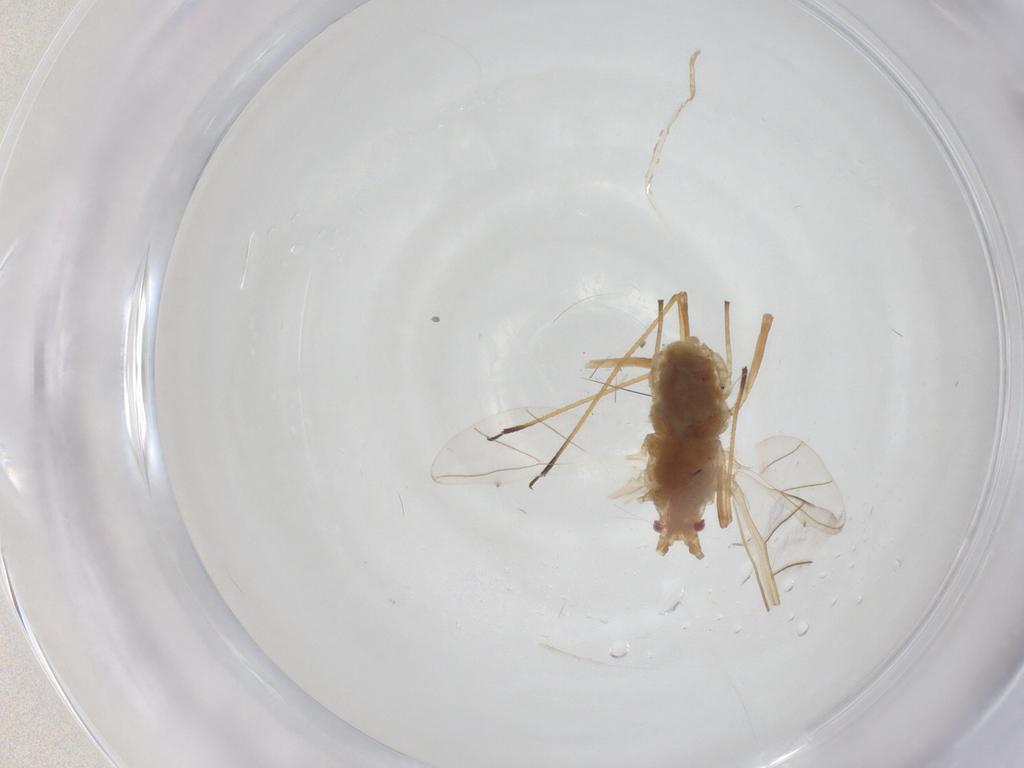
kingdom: Animalia
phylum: Arthropoda
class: Insecta
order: Hemiptera
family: Aphididae
